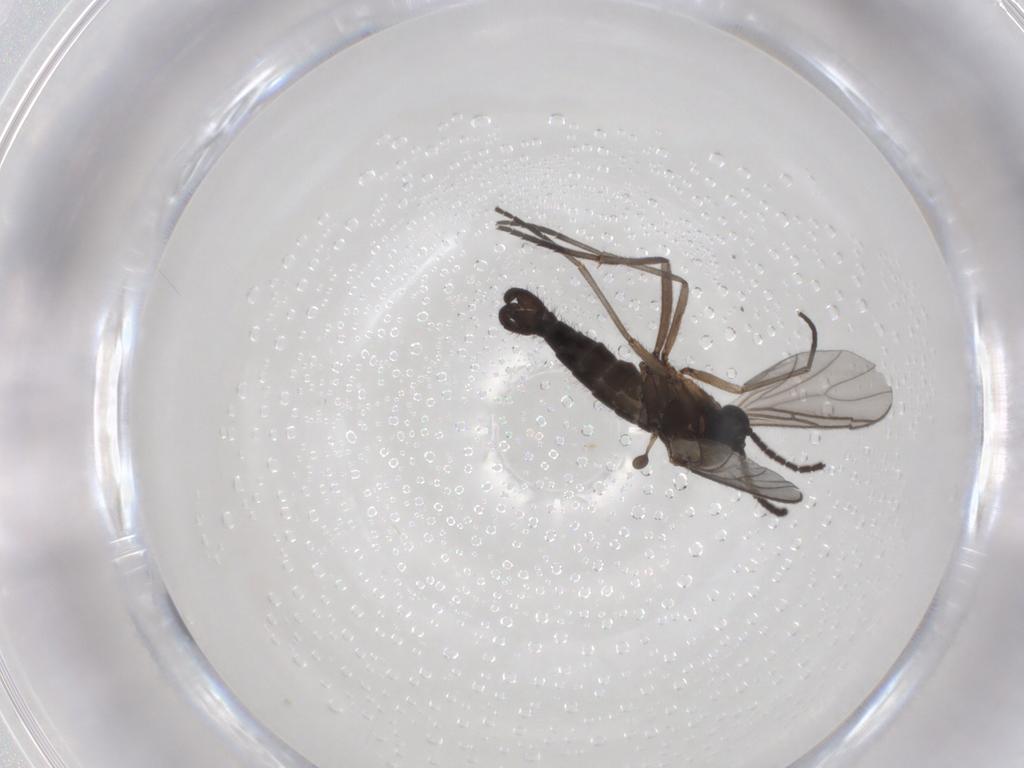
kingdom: Animalia
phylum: Arthropoda
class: Insecta
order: Diptera
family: Sciaridae
